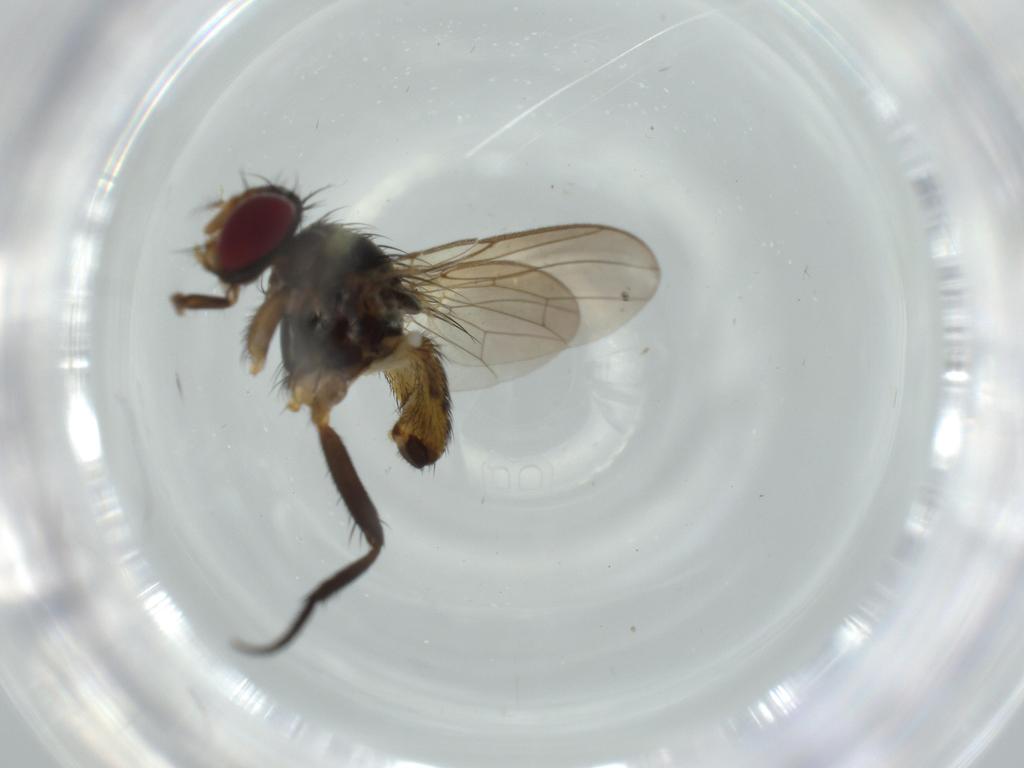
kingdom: Animalia
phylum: Arthropoda
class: Insecta
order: Diptera
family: Anthomyiidae
